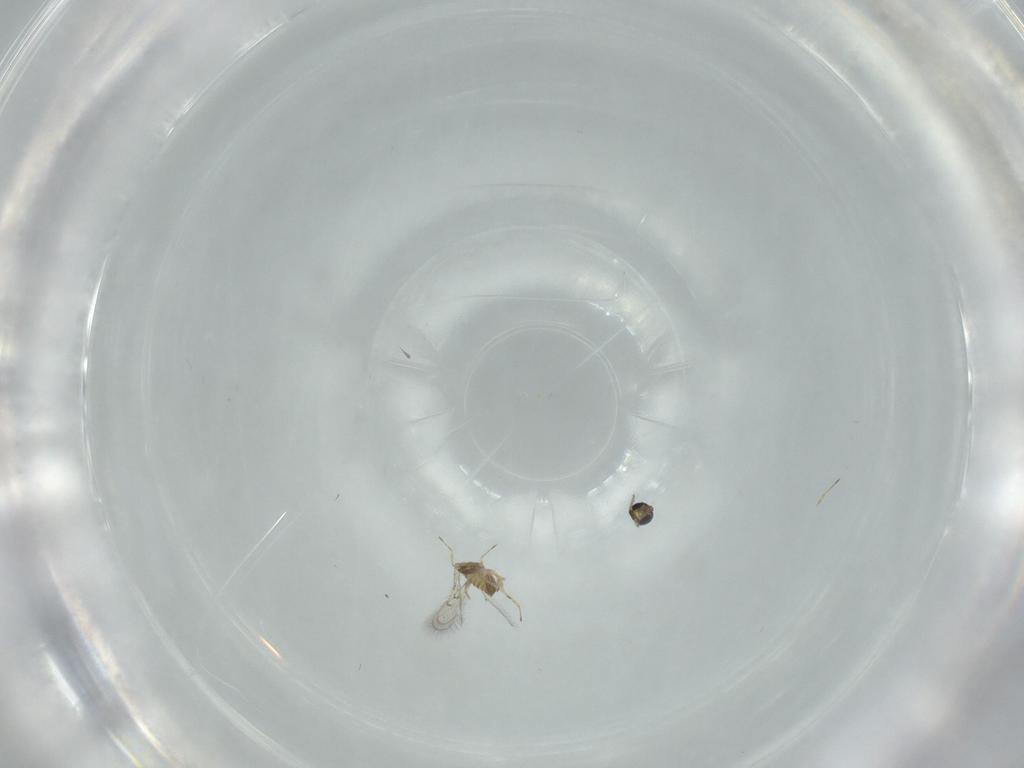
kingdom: Animalia
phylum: Arthropoda
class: Insecta
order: Hymenoptera
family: Trichogrammatidae
